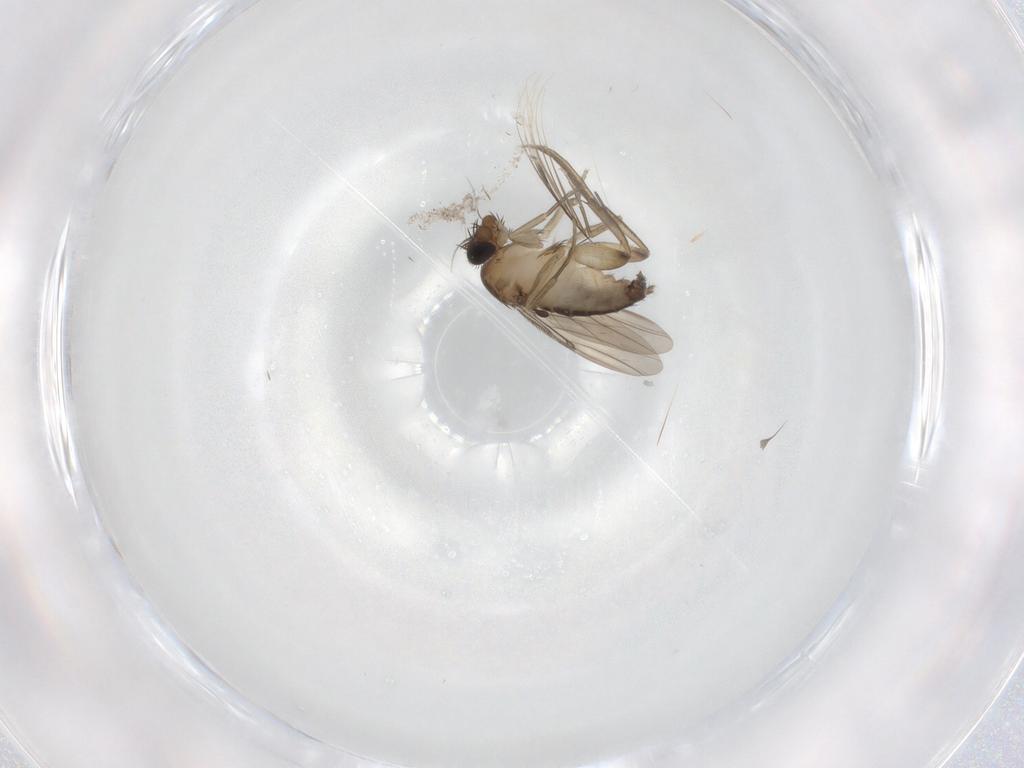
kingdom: Animalia
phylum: Arthropoda
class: Insecta
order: Diptera
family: Phoridae
